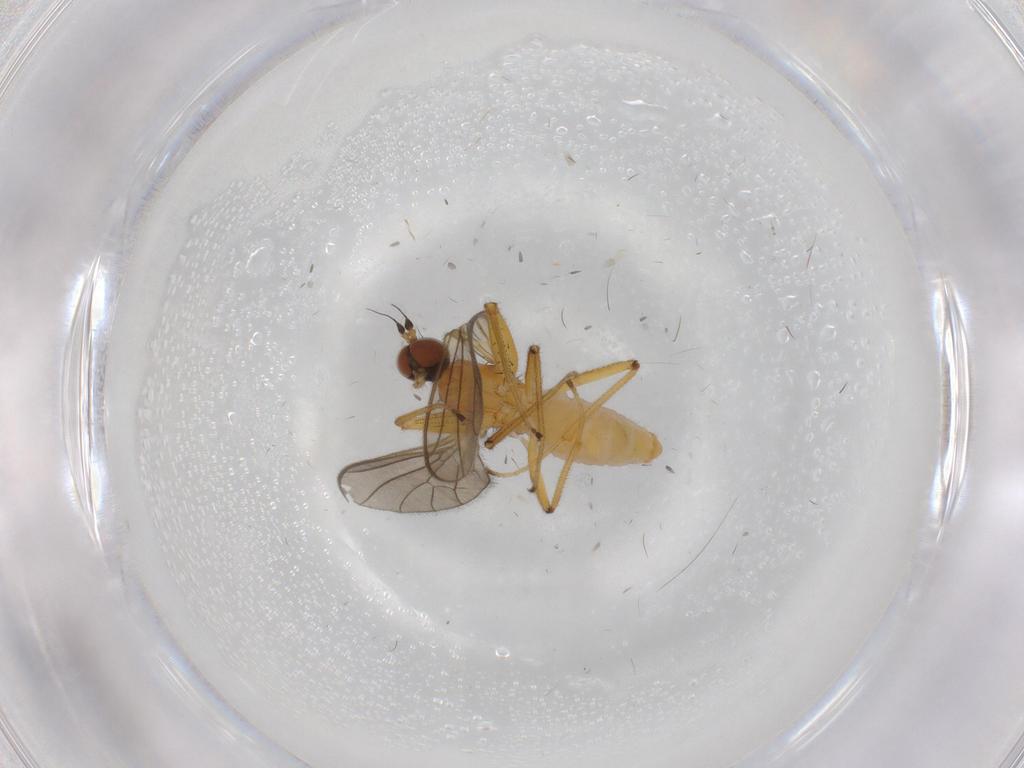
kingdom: Animalia
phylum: Arthropoda
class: Insecta
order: Diptera
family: Empididae
